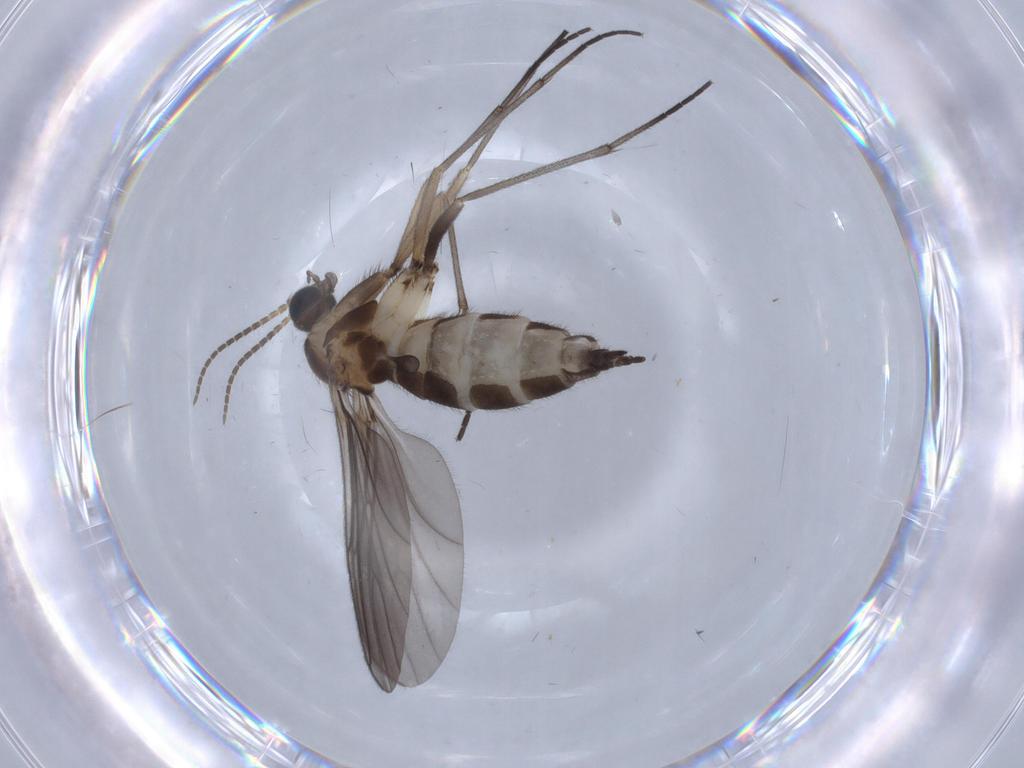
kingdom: Animalia
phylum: Arthropoda
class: Insecta
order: Diptera
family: Sciaridae
